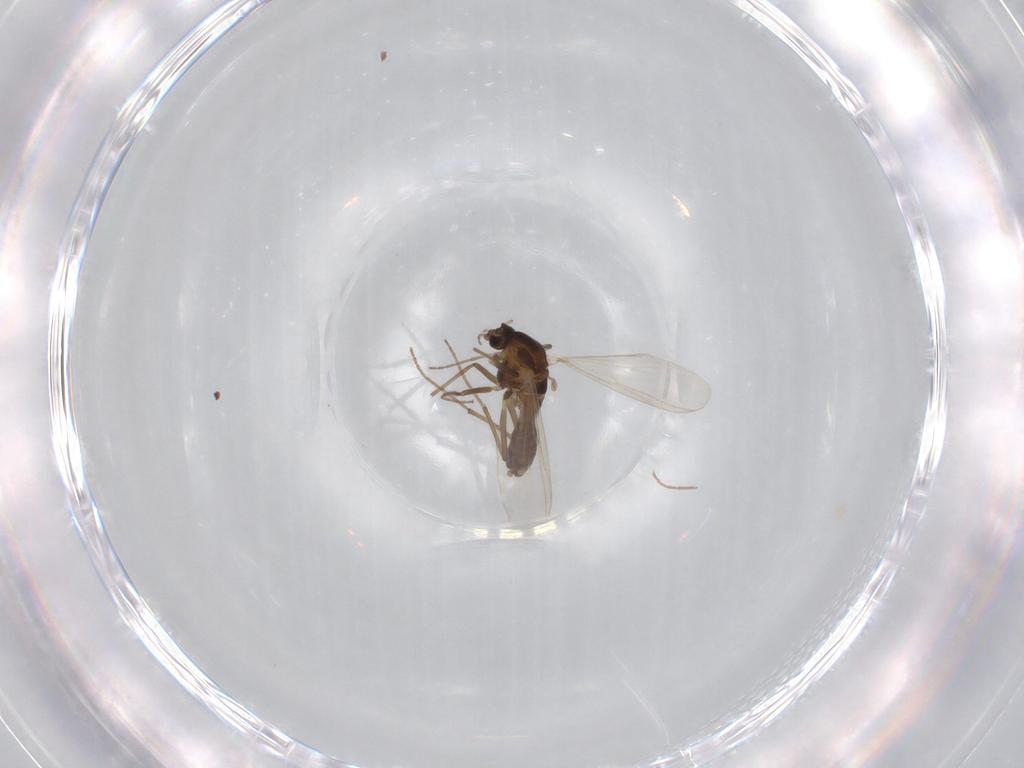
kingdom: Animalia
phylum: Arthropoda
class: Insecta
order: Diptera
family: Chironomidae
